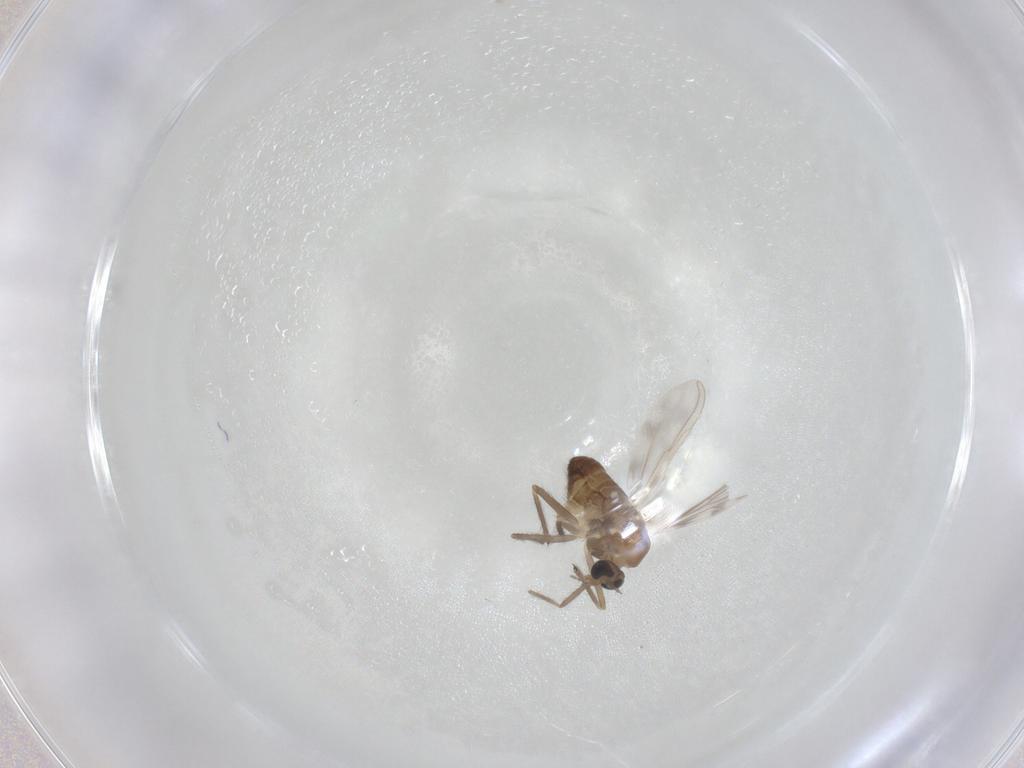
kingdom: Animalia
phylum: Arthropoda
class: Insecta
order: Diptera
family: Chironomidae
